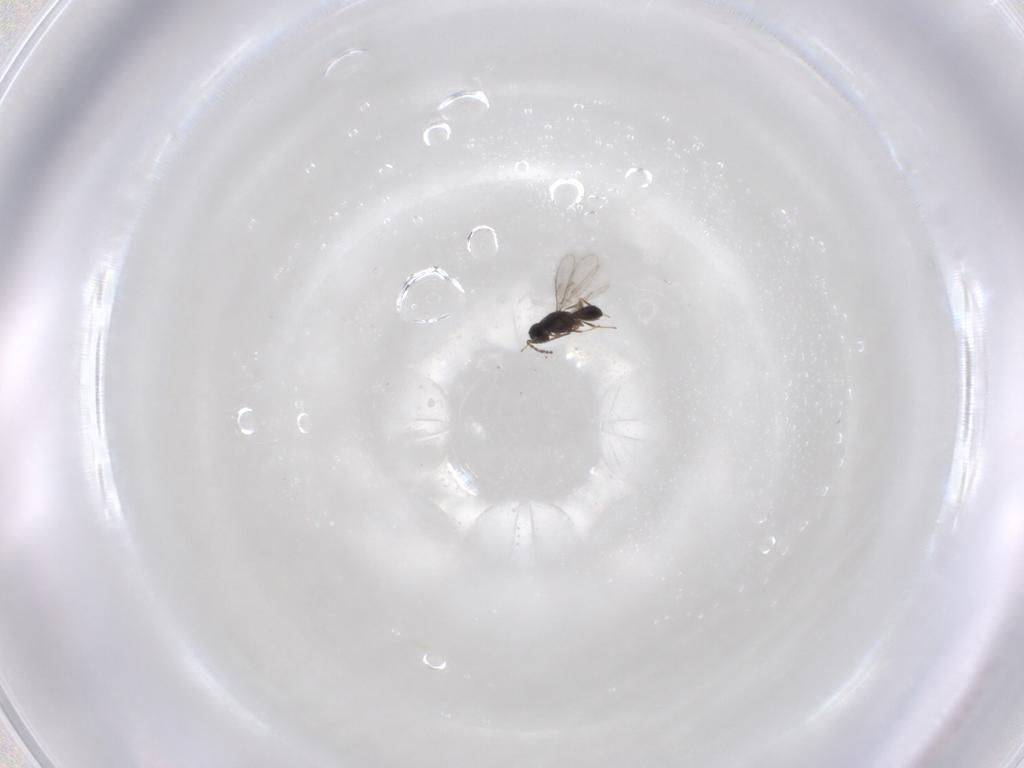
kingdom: Animalia
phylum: Arthropoda
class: Insecta
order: Hymenoptera
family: Scelionidae
